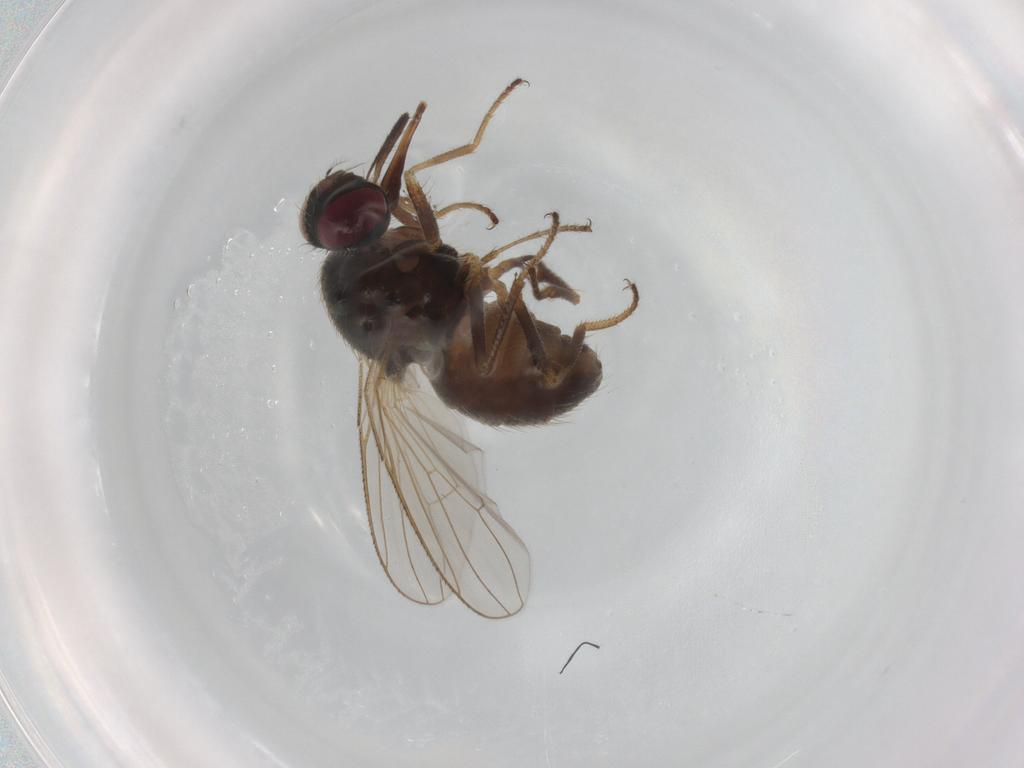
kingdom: Animalia
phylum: Arthropoda
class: Insecta
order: Diptera
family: Muscidae
